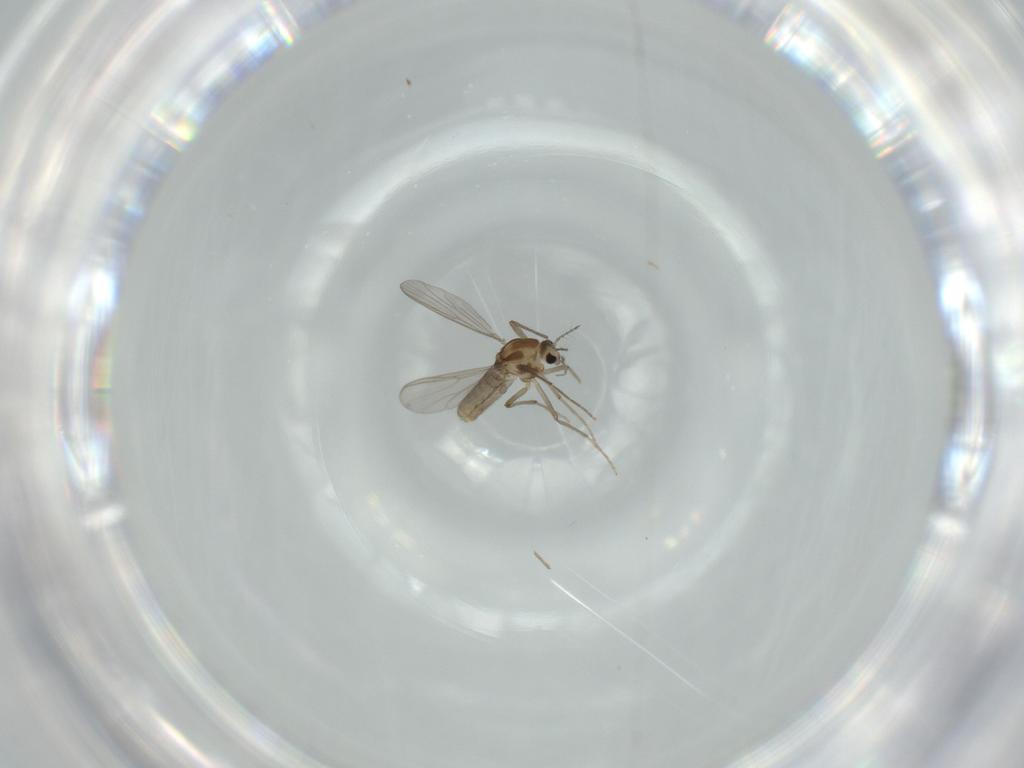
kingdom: Animalia
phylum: Arthropoda
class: Insecta
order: Diptera
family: Chironomidae
